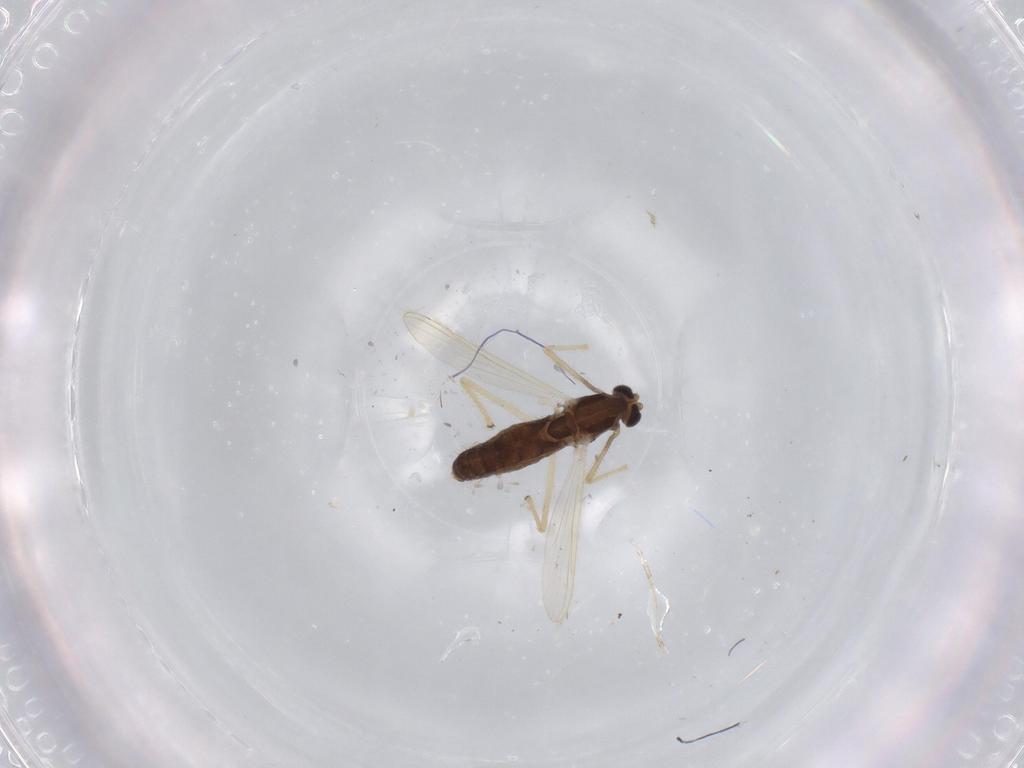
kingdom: Animalia
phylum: Arthropoda
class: Insecta
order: Diptera
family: Chironomidae
